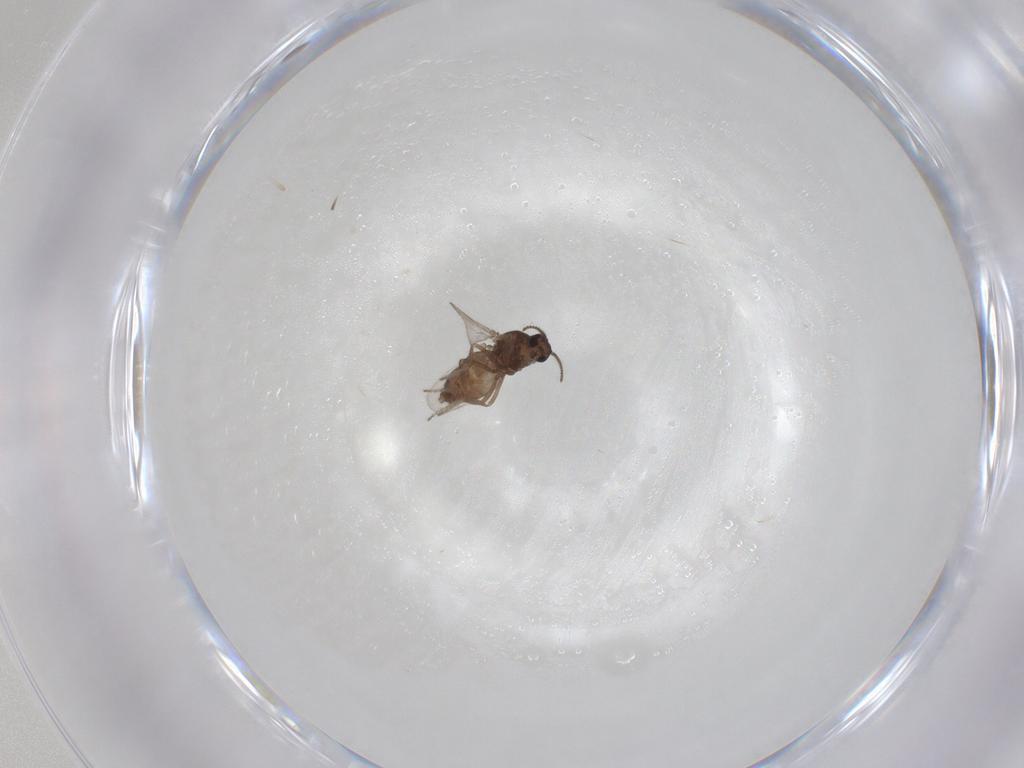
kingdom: Animalia
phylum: Arthropoda
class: Insecta
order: Diptera
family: Ceratopogonidae
